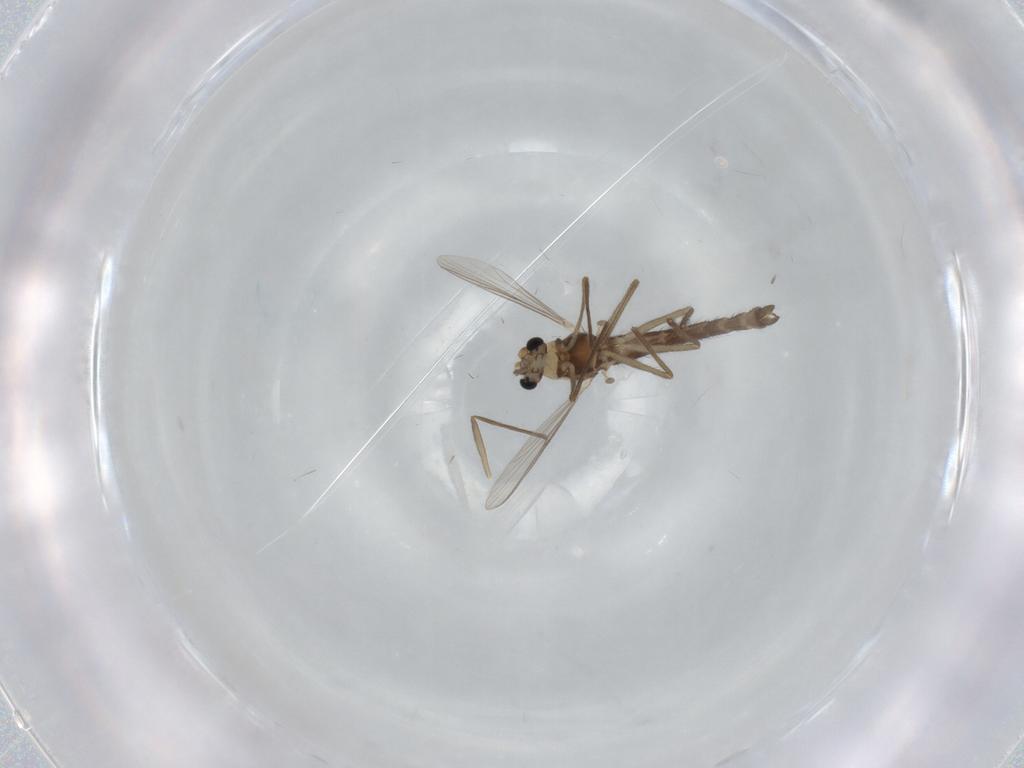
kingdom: Animalia
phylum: Arthropoda
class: Insecta
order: Diptera
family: Chironomidae
